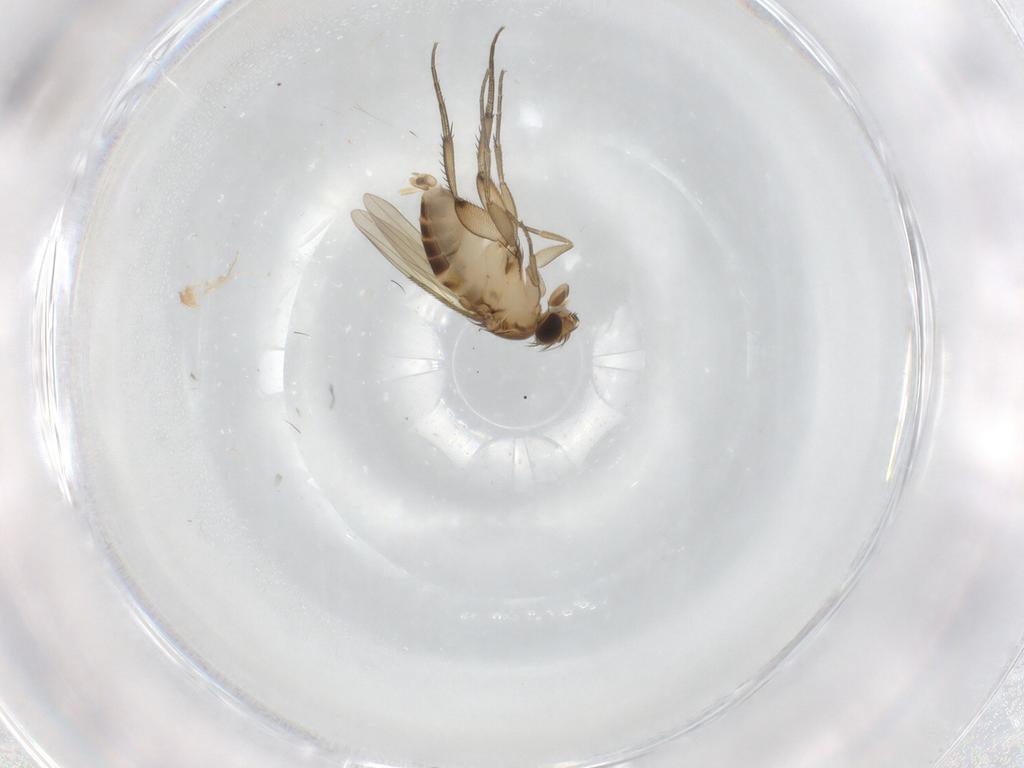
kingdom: Animalia
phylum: Arthropoda
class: Insecta
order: Diptera
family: Phoridae
